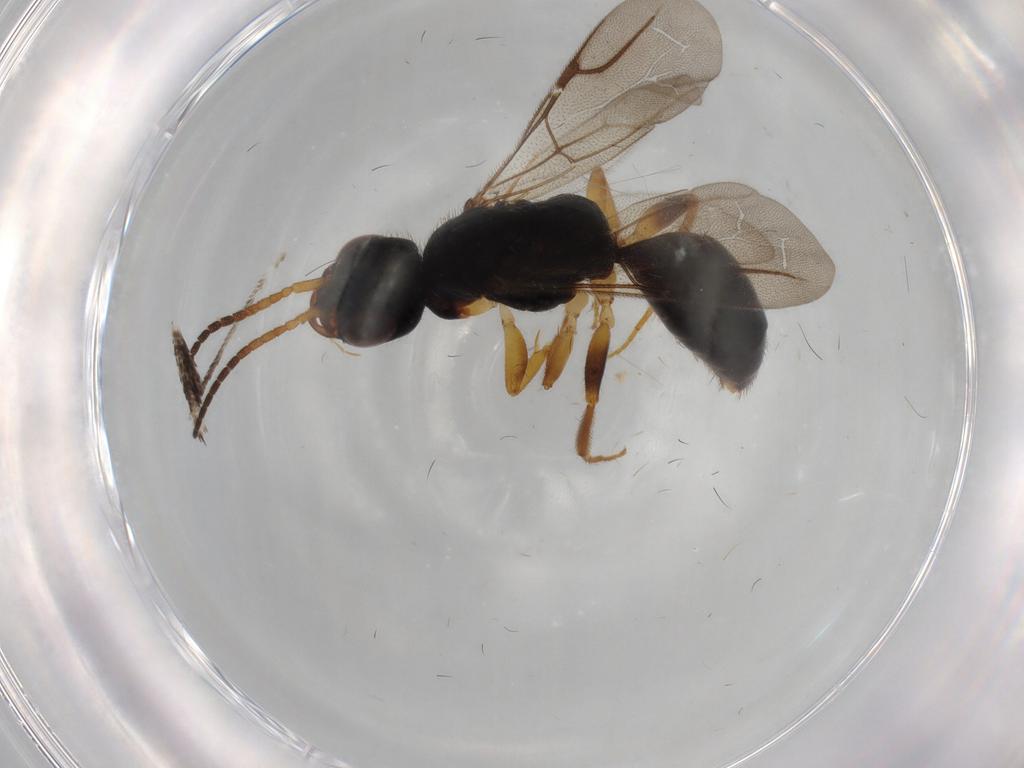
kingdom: Animalia
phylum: Arthropoda
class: Insecta
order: Hymenoptera
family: Bethylidae
